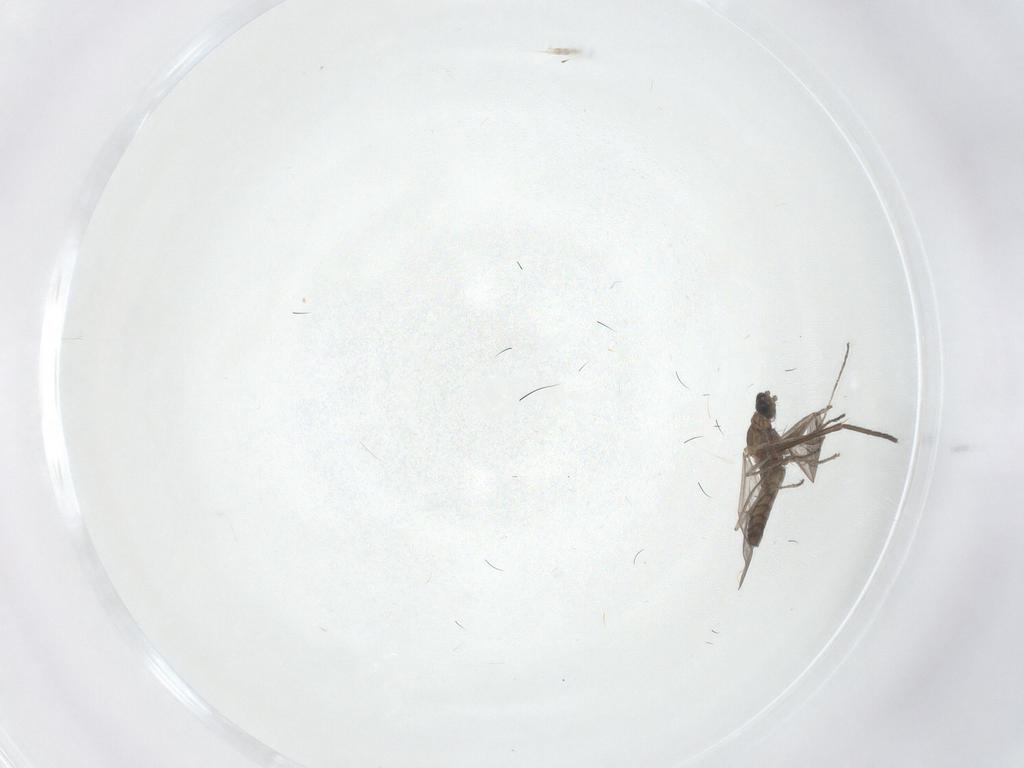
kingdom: Animalia
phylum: Arthropoda
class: Insecta
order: Diptera
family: Sciaridae
